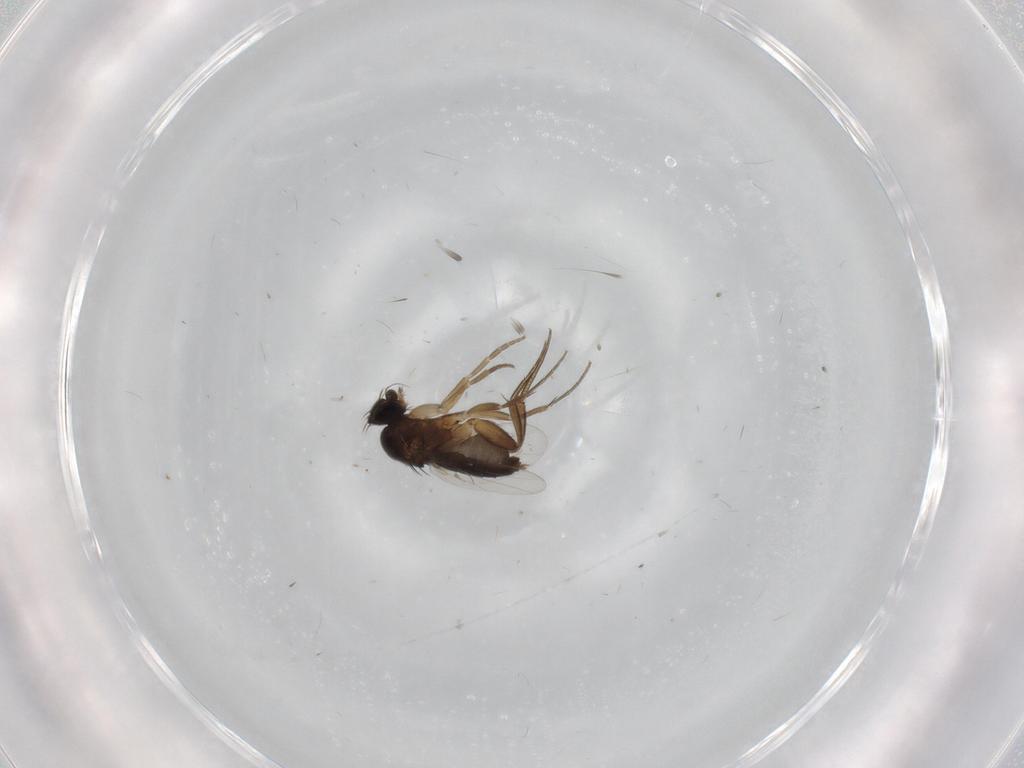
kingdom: Animalia
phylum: Arthropoda
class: Insecta
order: Diptera
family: Phoridae
